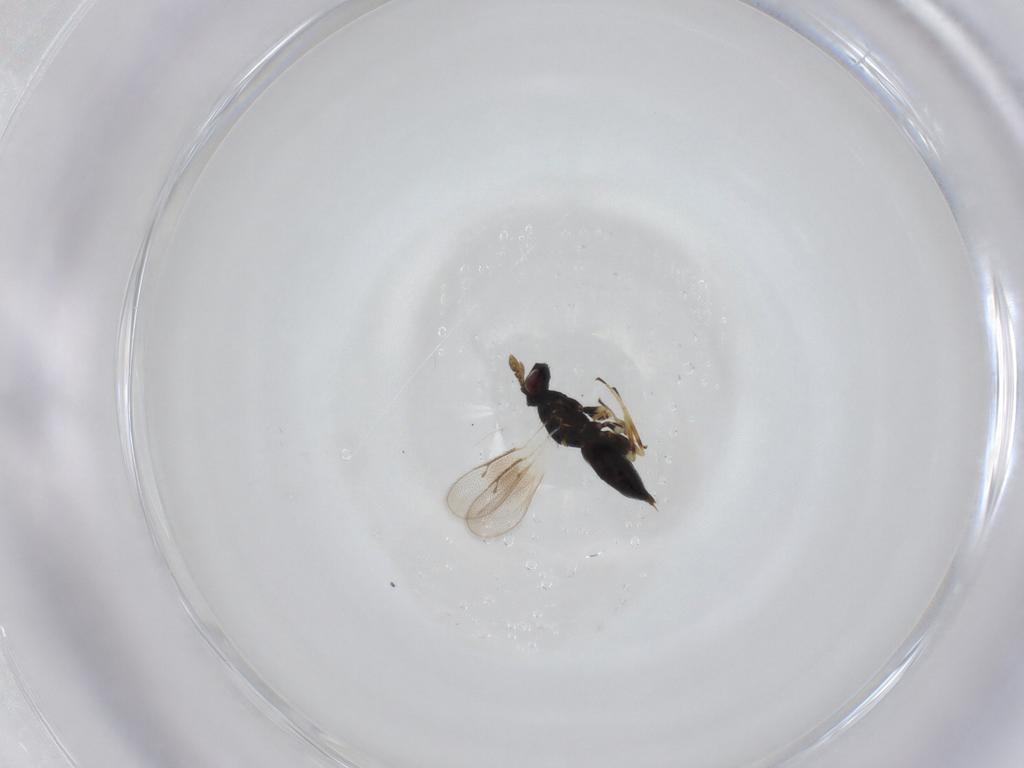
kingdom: Animalia
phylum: Arthropoda
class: Insecta
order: Hymenoptera
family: Eulophidae
